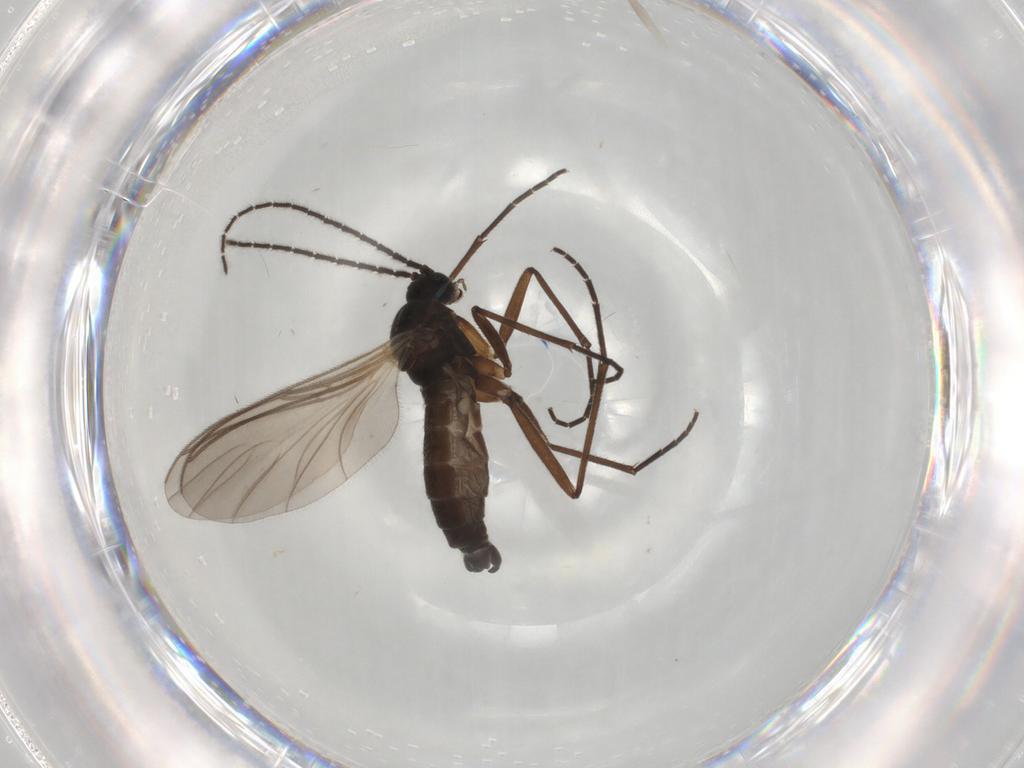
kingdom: Animalia
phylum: Arthropoda
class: Insecta
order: Diptera
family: Sciaridae
